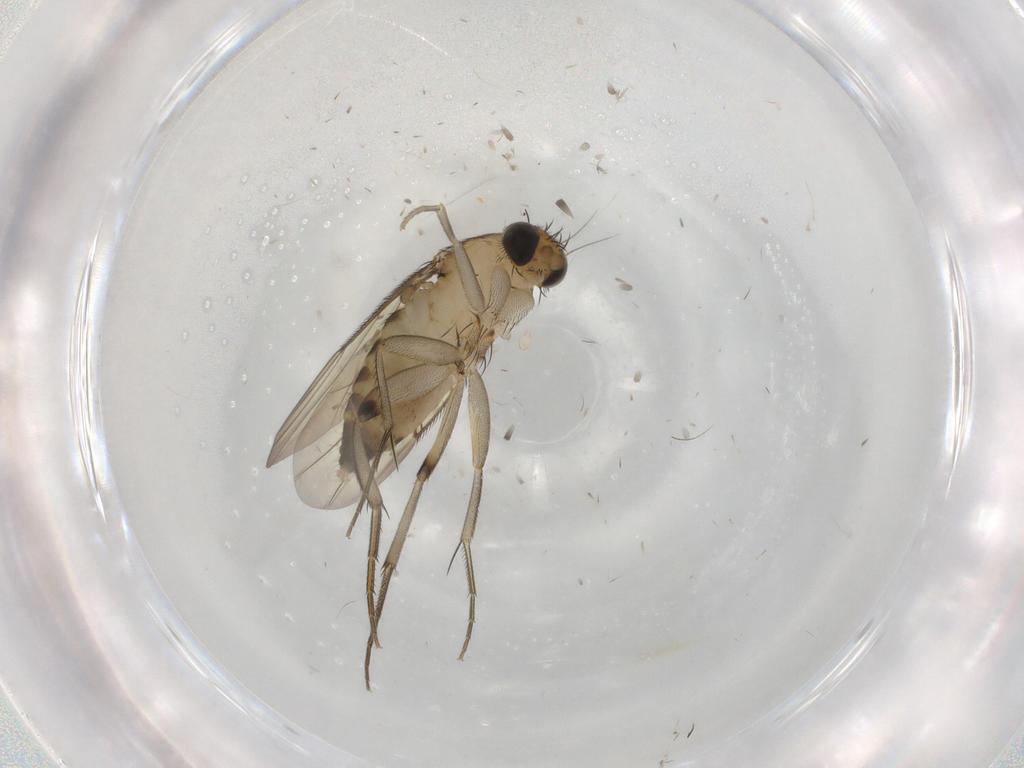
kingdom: Animalia
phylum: Arthropoda
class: Insecta
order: Diptera
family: Phoridae
